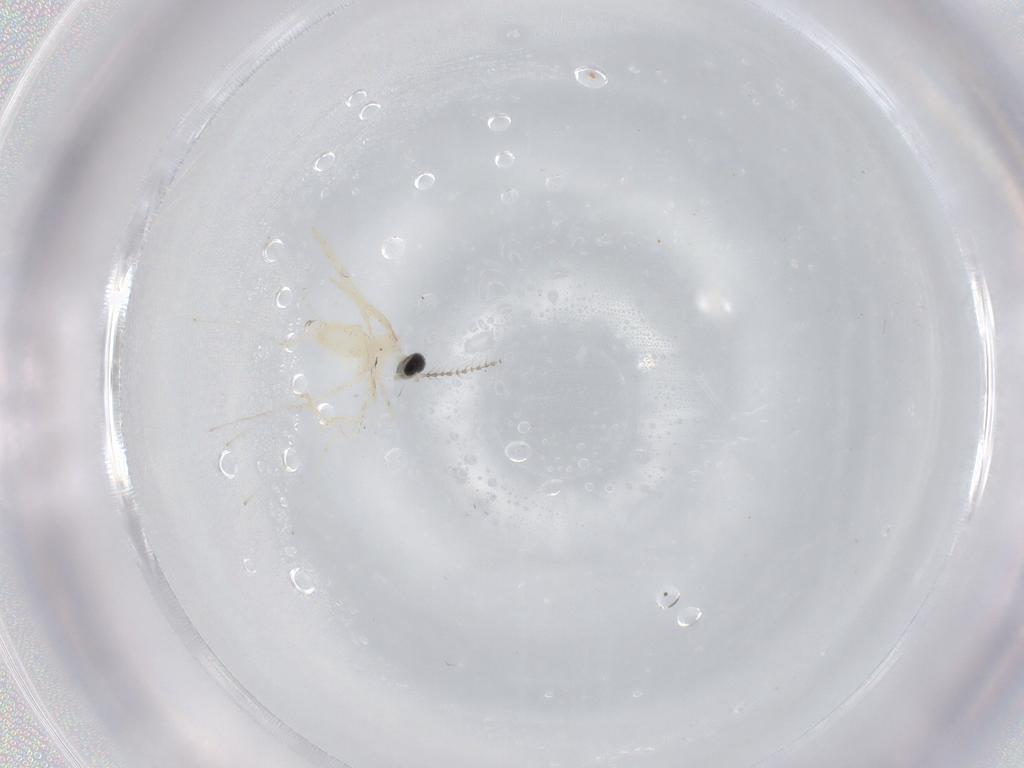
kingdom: Animalia
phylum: Arthropoda
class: Insecta
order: Diptera
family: Cecidomyiidae
